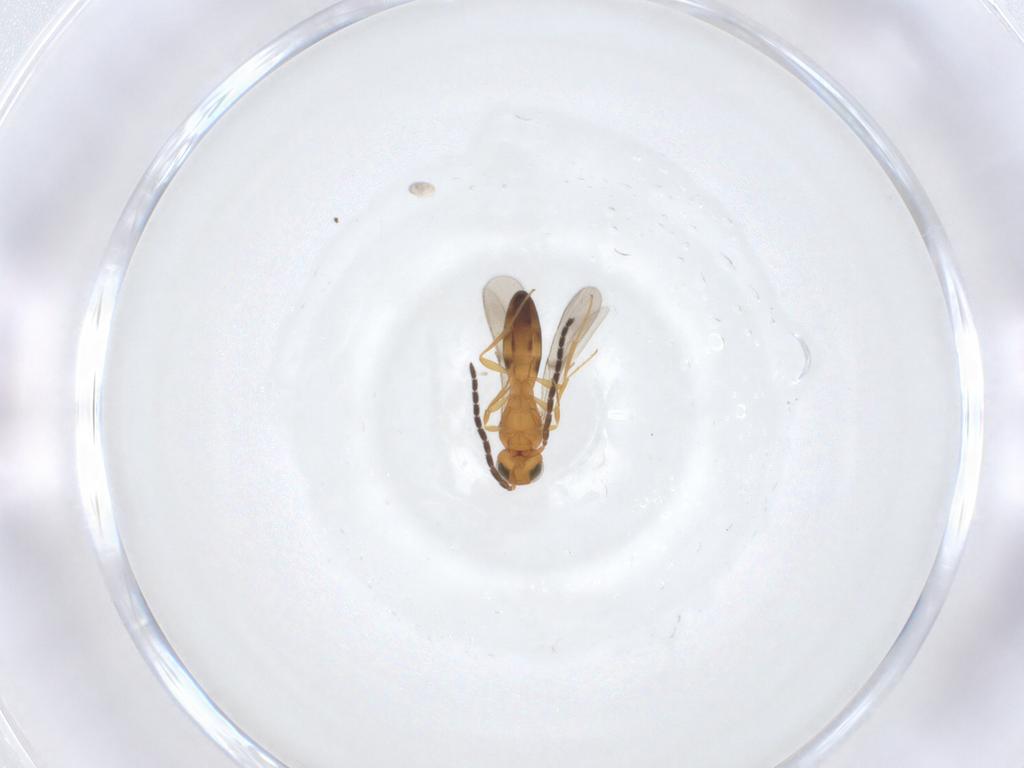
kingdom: Animalia
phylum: Arthropoda
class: Insecta
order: Hymenoptera
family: Scelionidae
